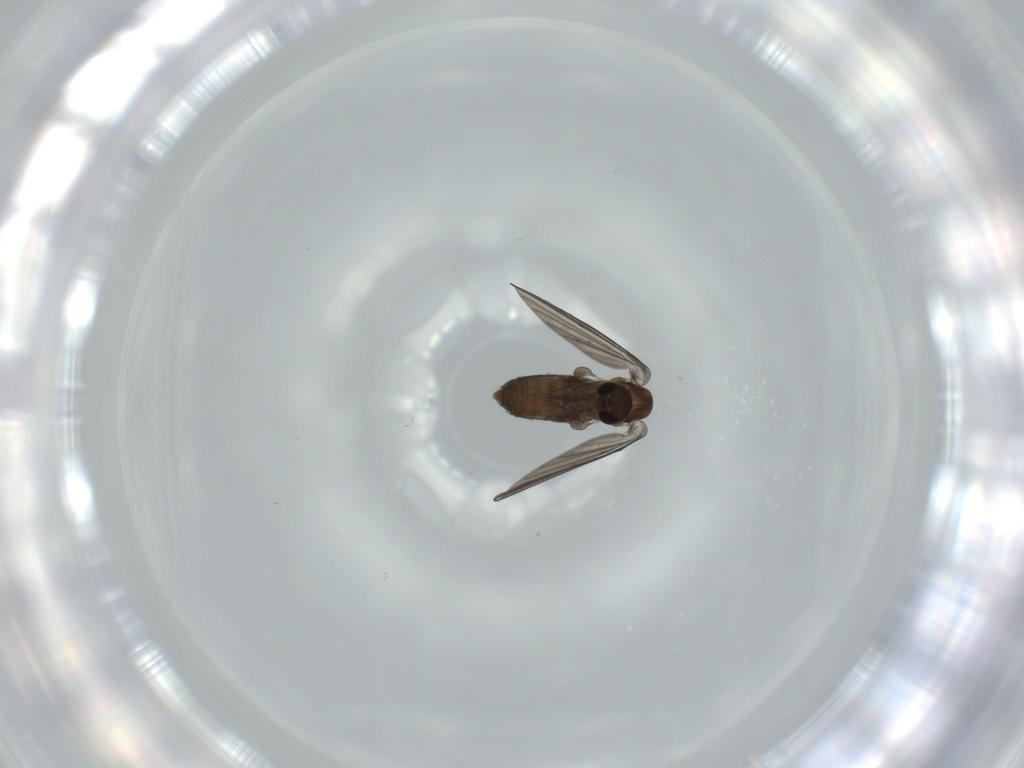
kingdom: Animalia
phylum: Arthropoda
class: Insecta
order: Diptera
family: Psychodidae
